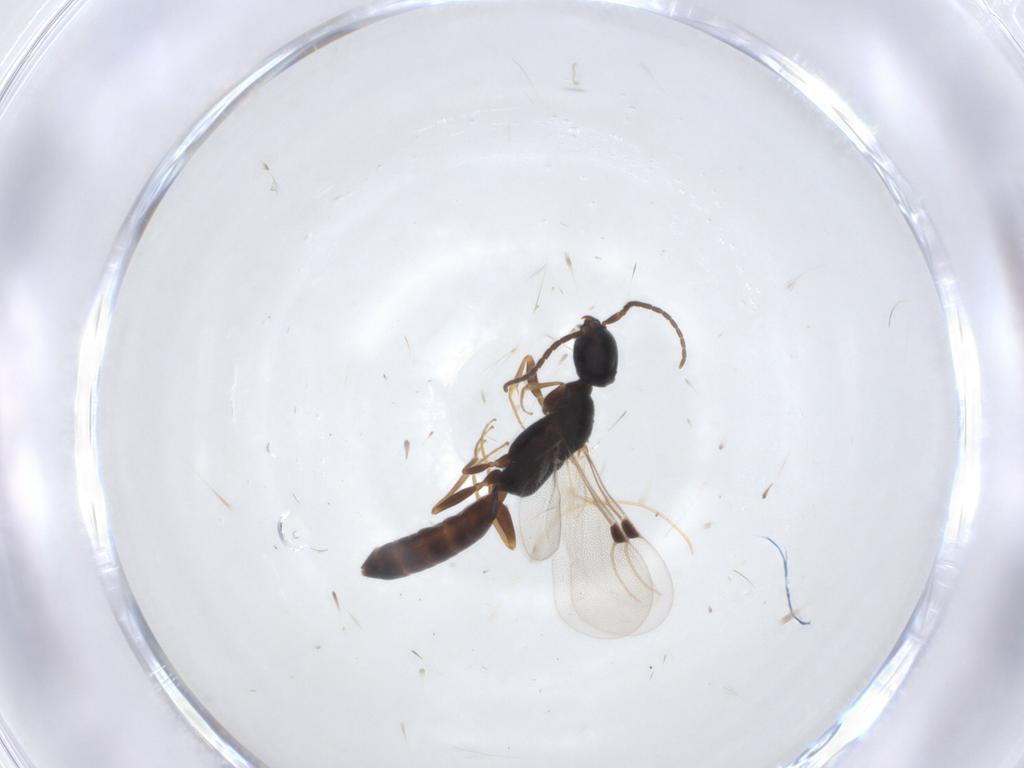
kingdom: Animalia
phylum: Arthropoda
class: Insecta
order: Hymenoptera
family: Bethylidae
